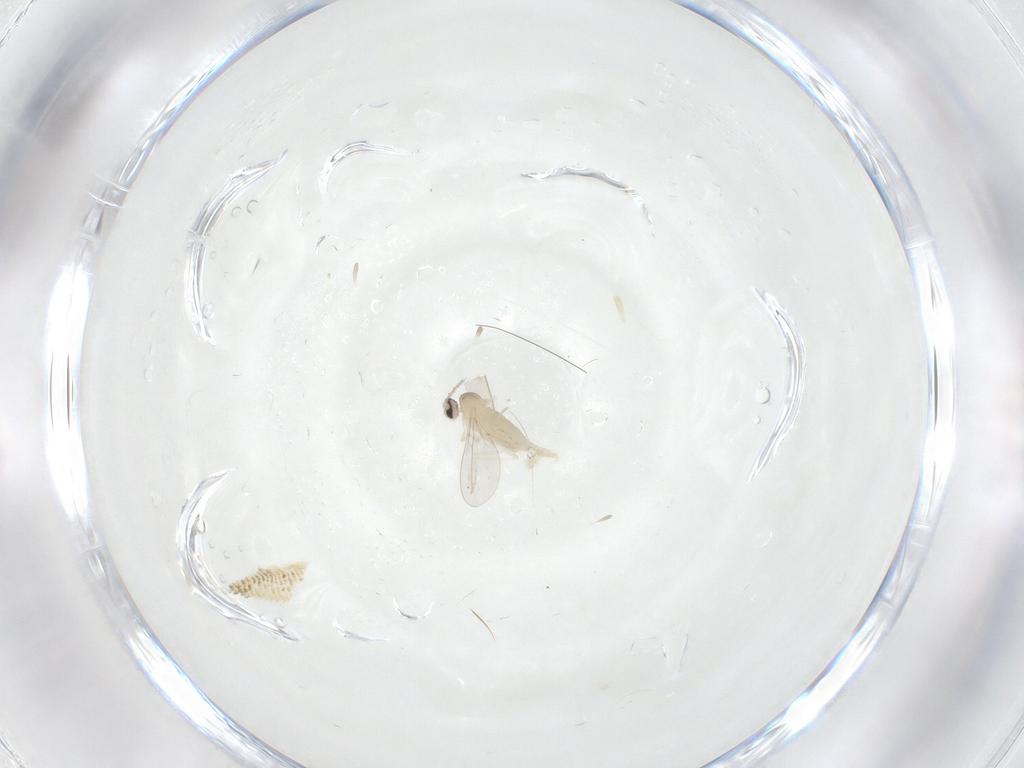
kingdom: Animalia
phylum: Arthropoda
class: Insecta
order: Diptera
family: Cecidomyiidae
